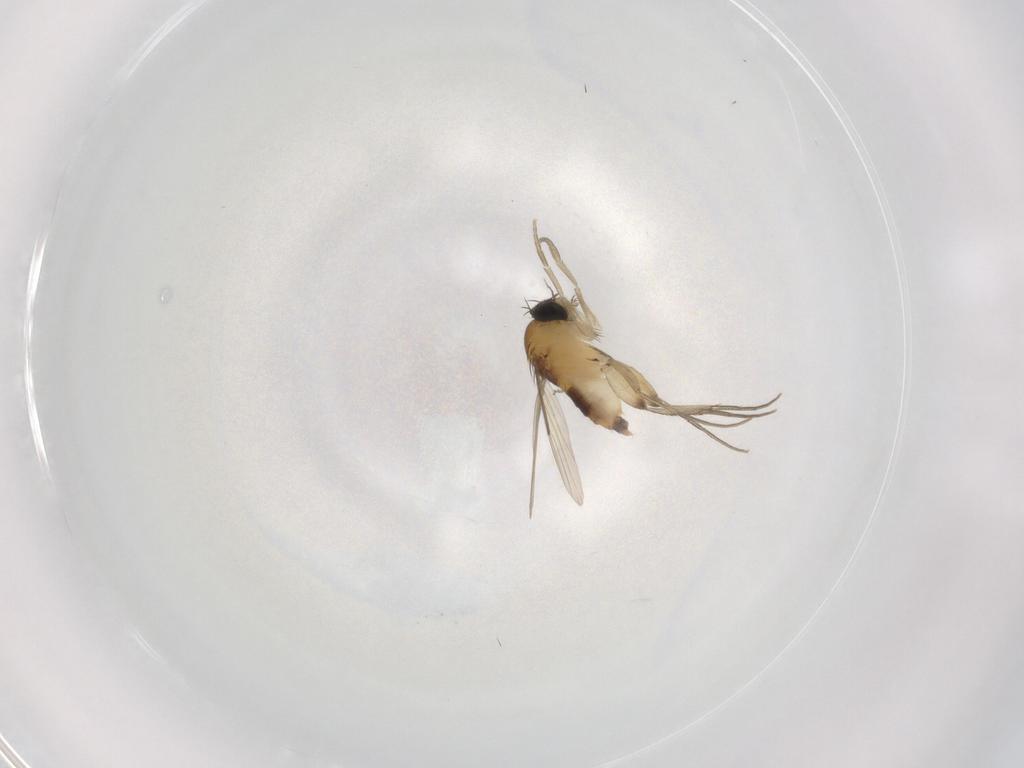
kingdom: Animalia
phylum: Arthropoda
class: Insecta
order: Diptera
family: Phoridae
